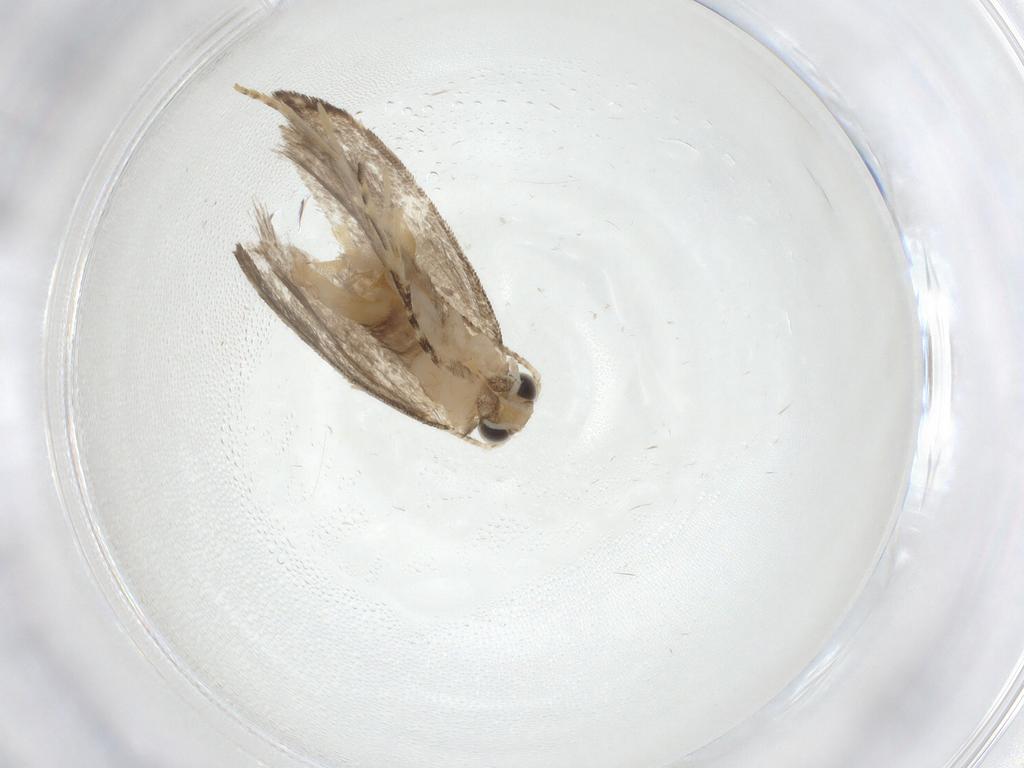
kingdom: Animalia
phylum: Arthropoda
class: Insecta
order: Lepidoptera
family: Tineidae
